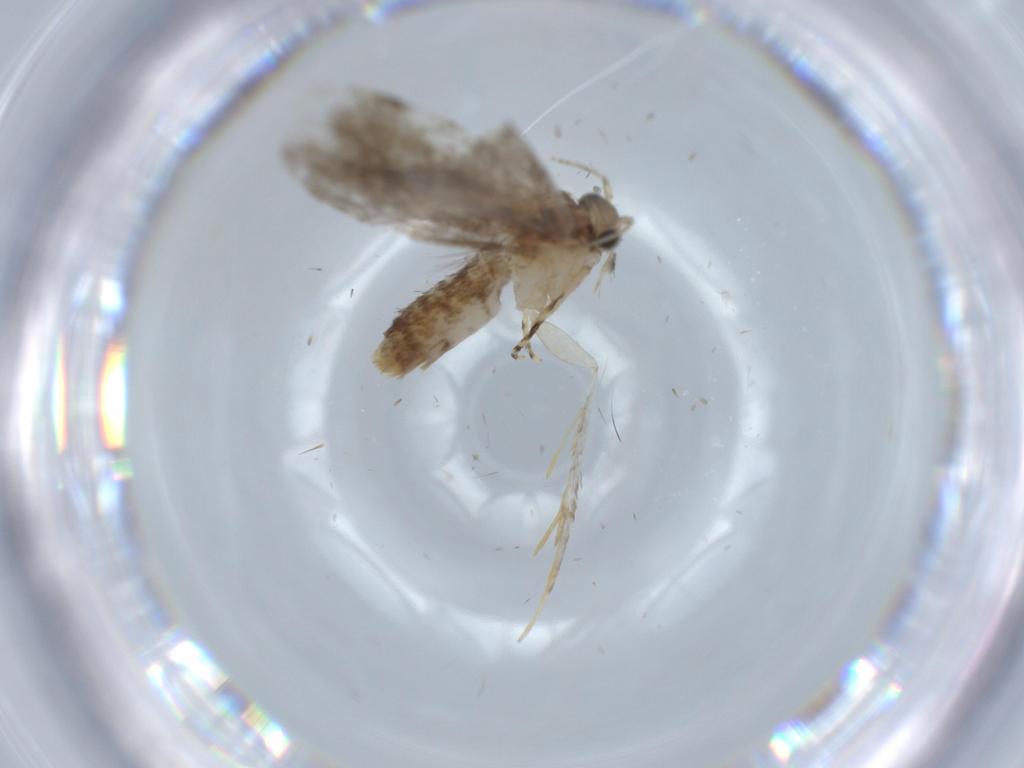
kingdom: Animalia
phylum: Arthropoda
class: Insecta
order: Lepidoptera
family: Tineidae
